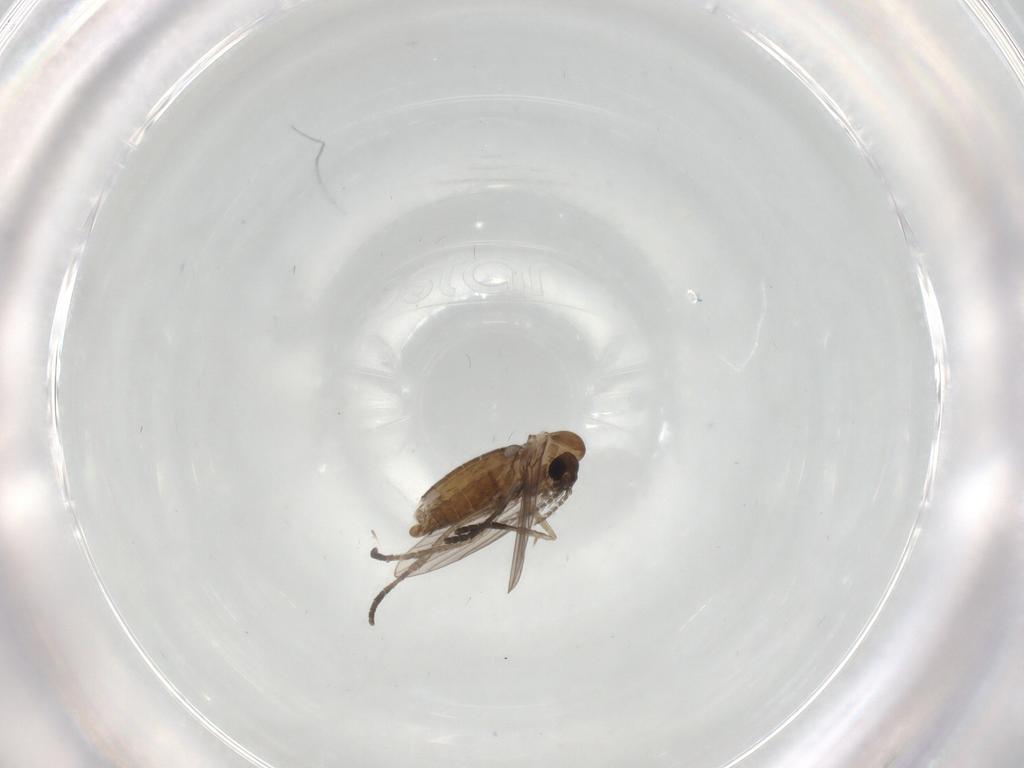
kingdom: Animalia
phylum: Arthropoda
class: Insecta
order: Diptera
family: Psychodidae
